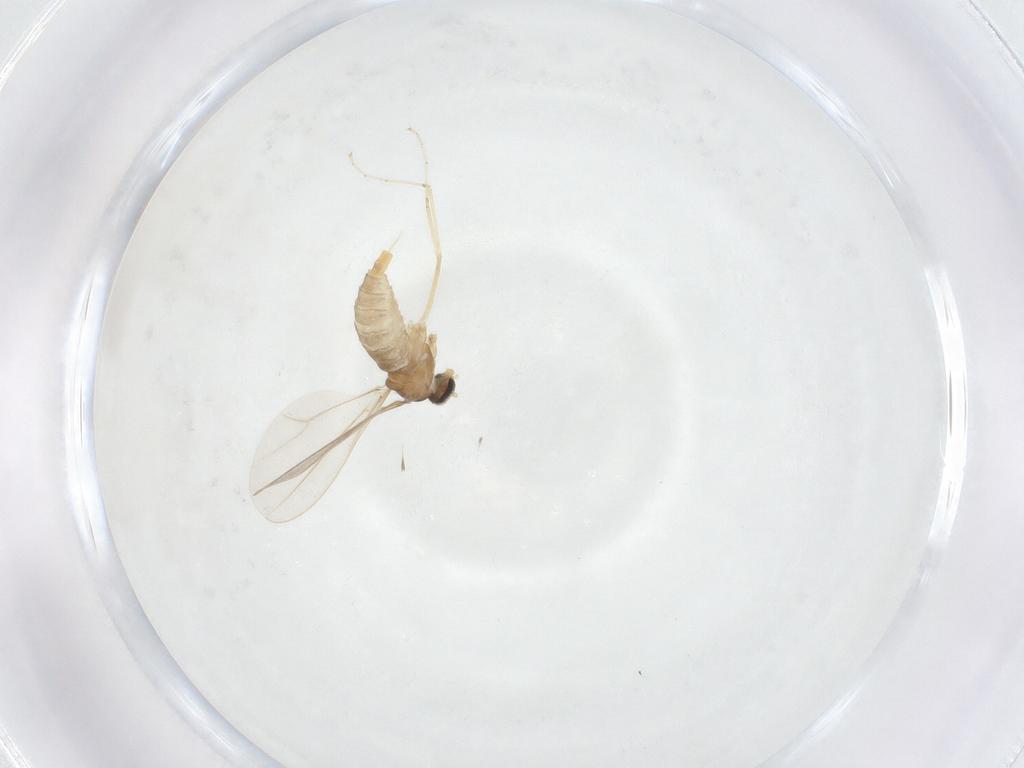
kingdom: Animalia
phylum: Arthropoda
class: Insecta
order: Diptera
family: Cecidomyiidae
